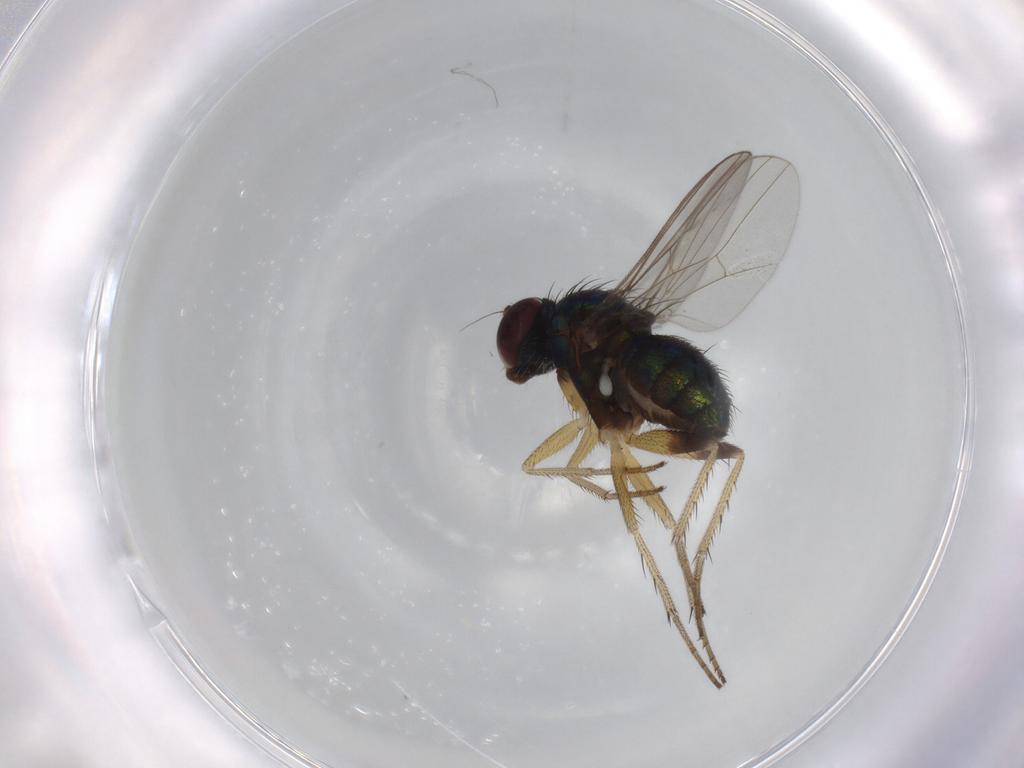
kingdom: Animalia
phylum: Arthropoda
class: Insecta
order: Diptera
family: Dolichopodidae
